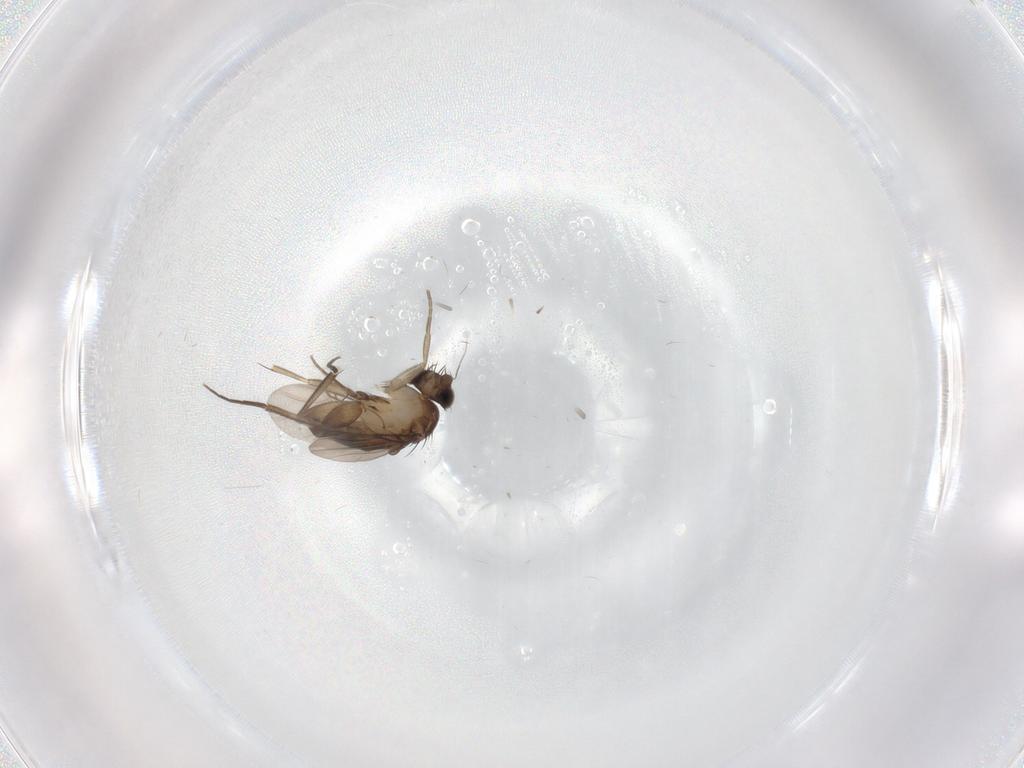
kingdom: Animalia
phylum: Arthropoda
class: Insecta
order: Diptera
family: Phoridae
